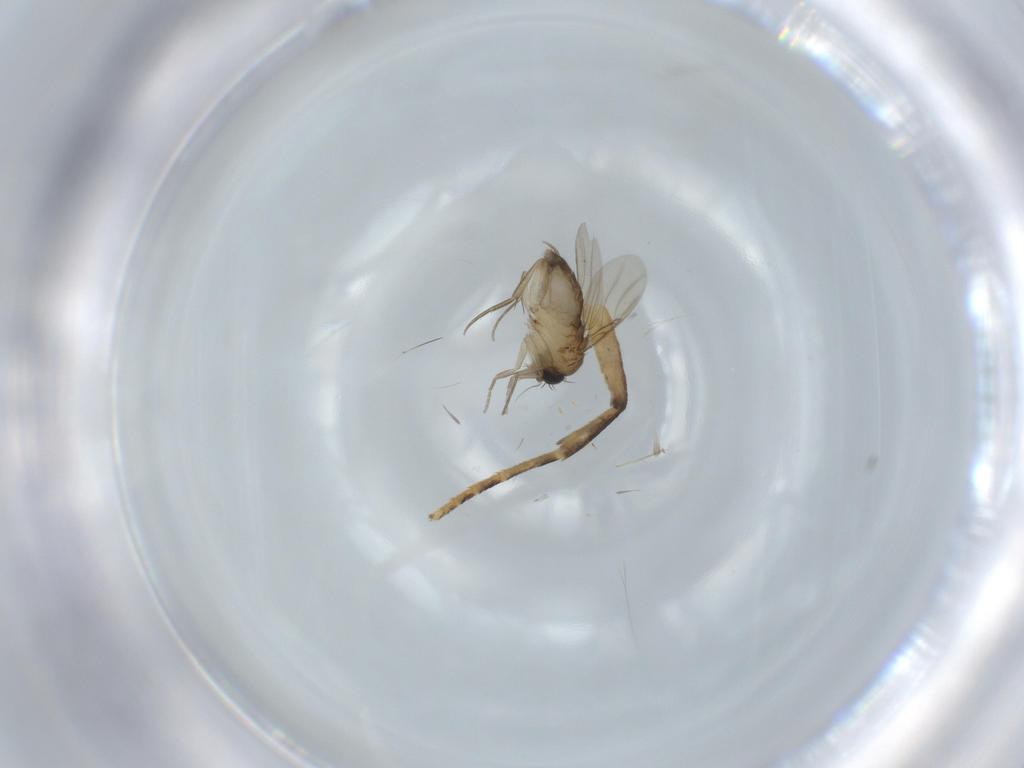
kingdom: Animalia
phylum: Arthropoda
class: Insecta
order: Diptera
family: Phoridae
